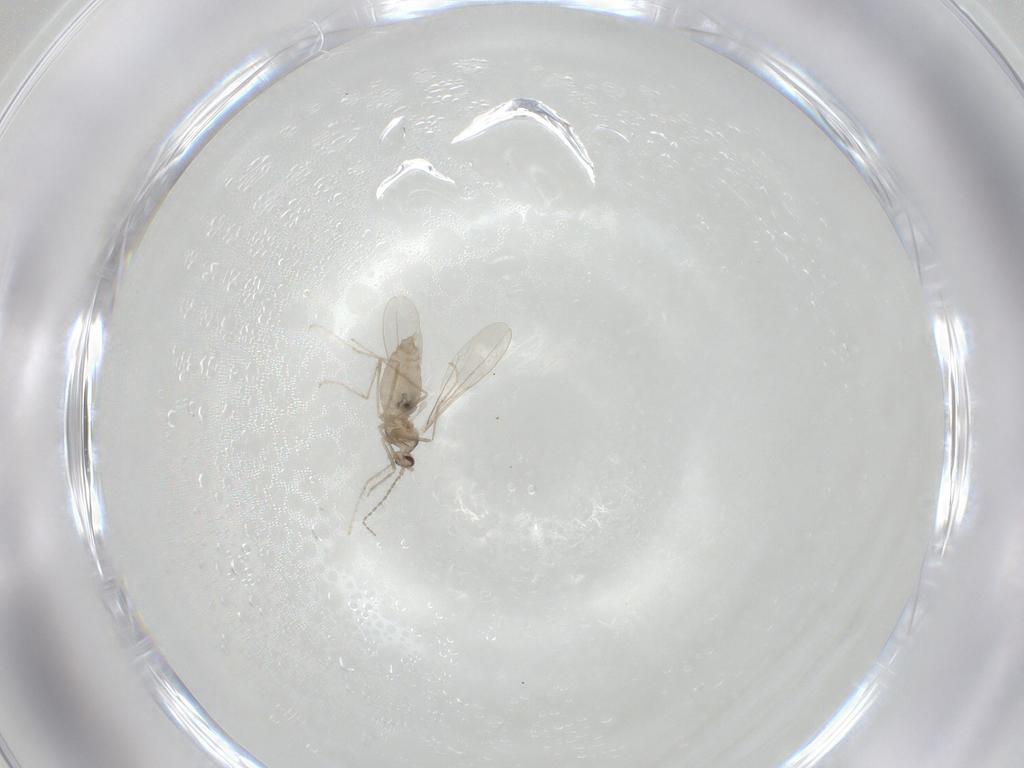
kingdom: Animalia
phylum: Arthropoda
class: Insecta
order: Diptera
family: Cecidomyiidae
